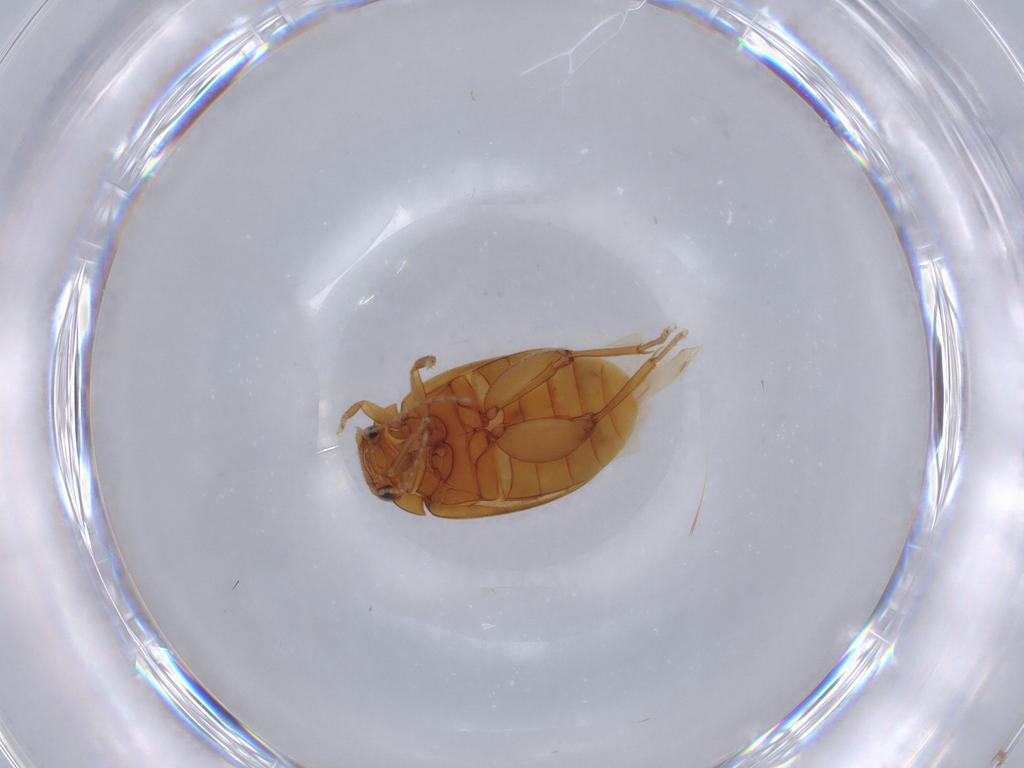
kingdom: Animalia
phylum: Arthropoda
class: Insecta
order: Coleoptera
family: Scirtidae
